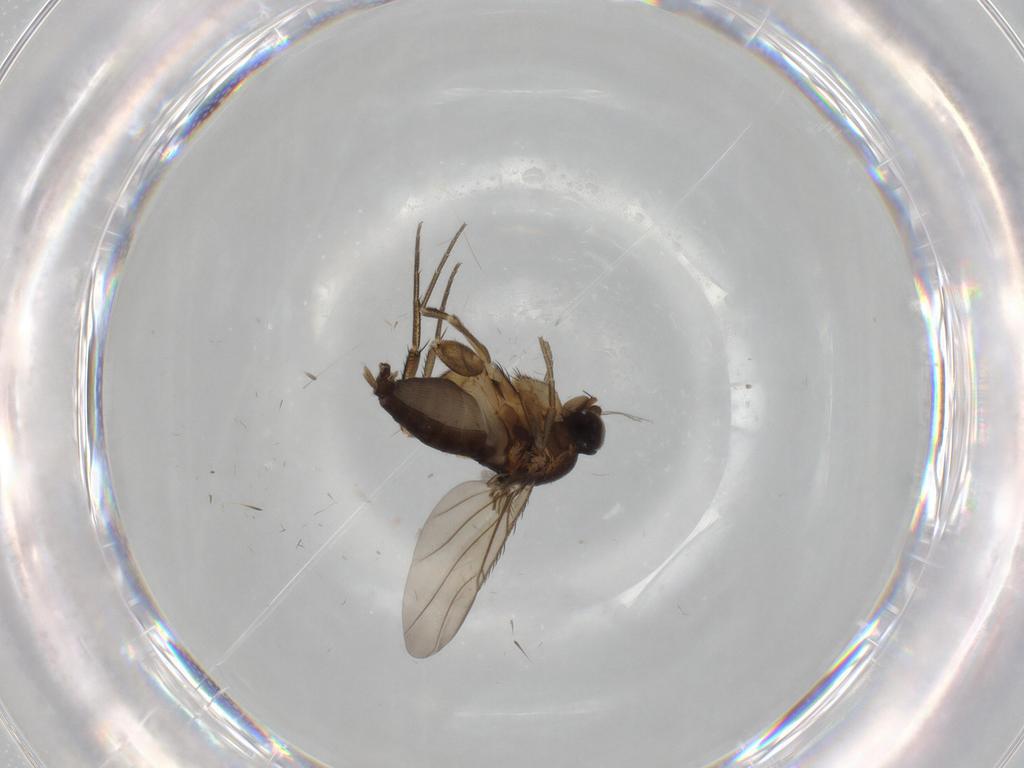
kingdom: Animalia
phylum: Arthropoda
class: Insecta
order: Diptera
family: Phoridae
